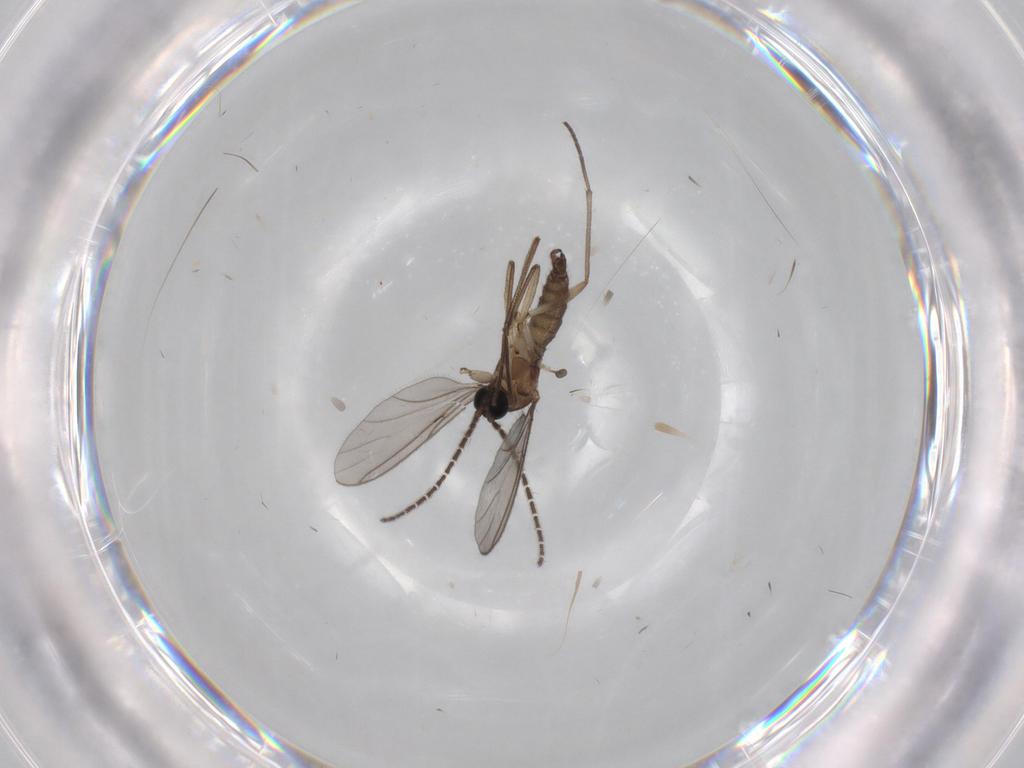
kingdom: Animalia
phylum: Arthropoda
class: Insecta
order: Diptera
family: Sciaridae
